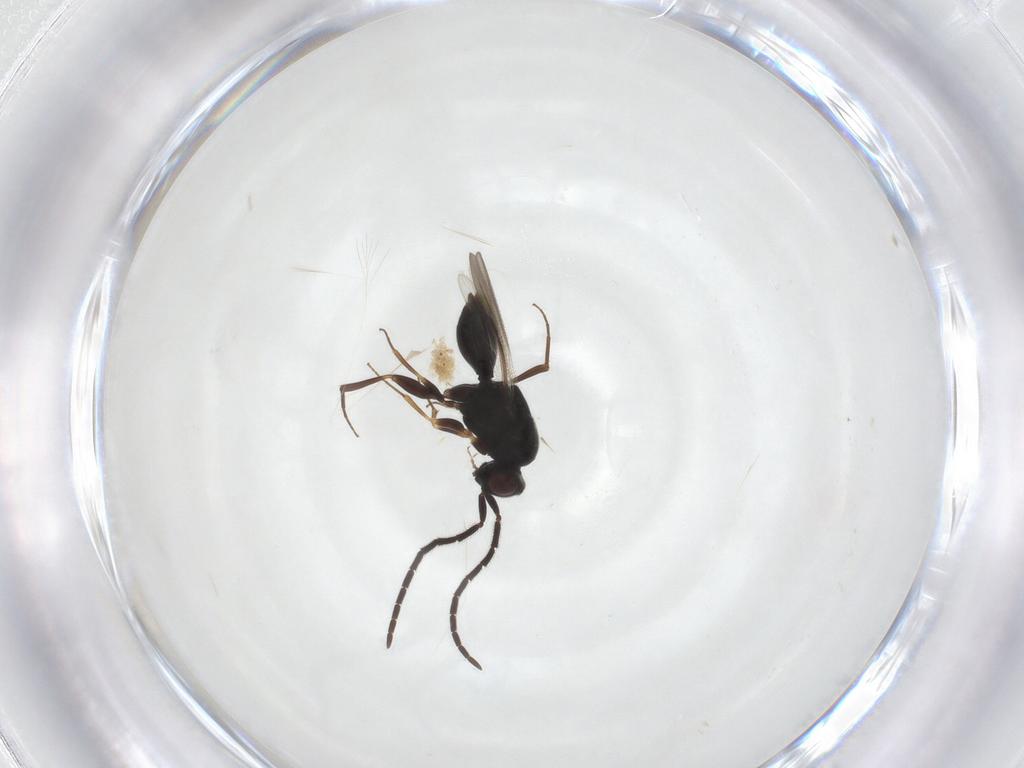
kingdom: Animalia
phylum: Arthropoda
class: Insecta
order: Hymenoptera
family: Megaspilidae
